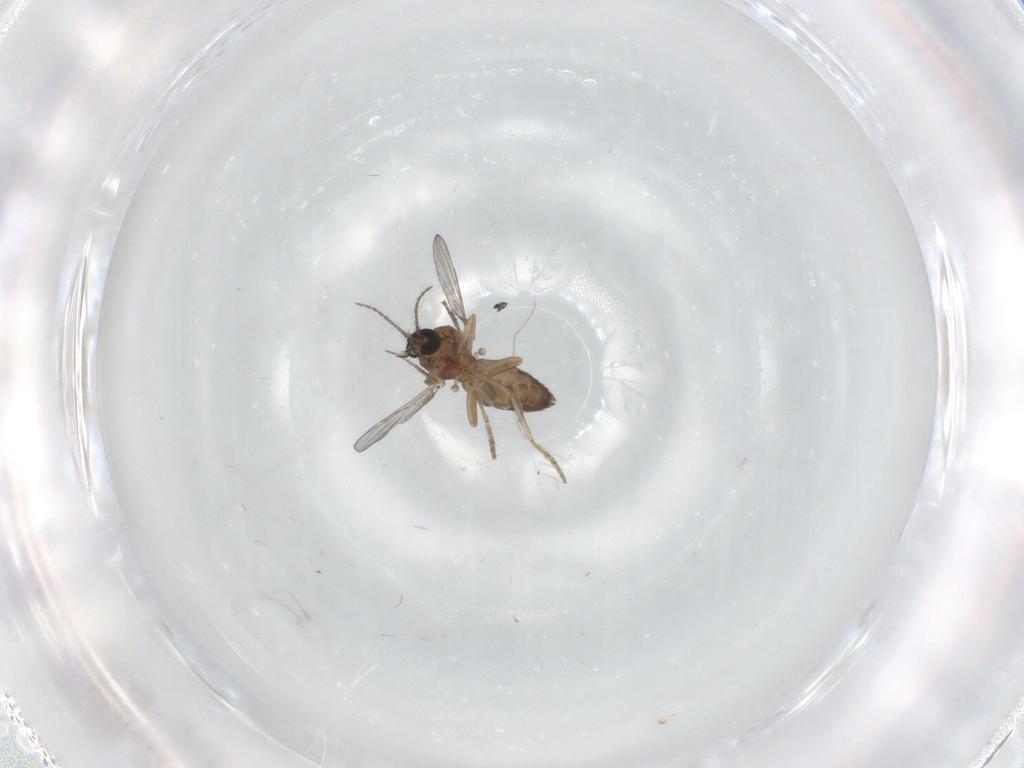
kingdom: Animalia
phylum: Arthropoda
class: Insecta
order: Diptera
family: Ceratopogonidae
